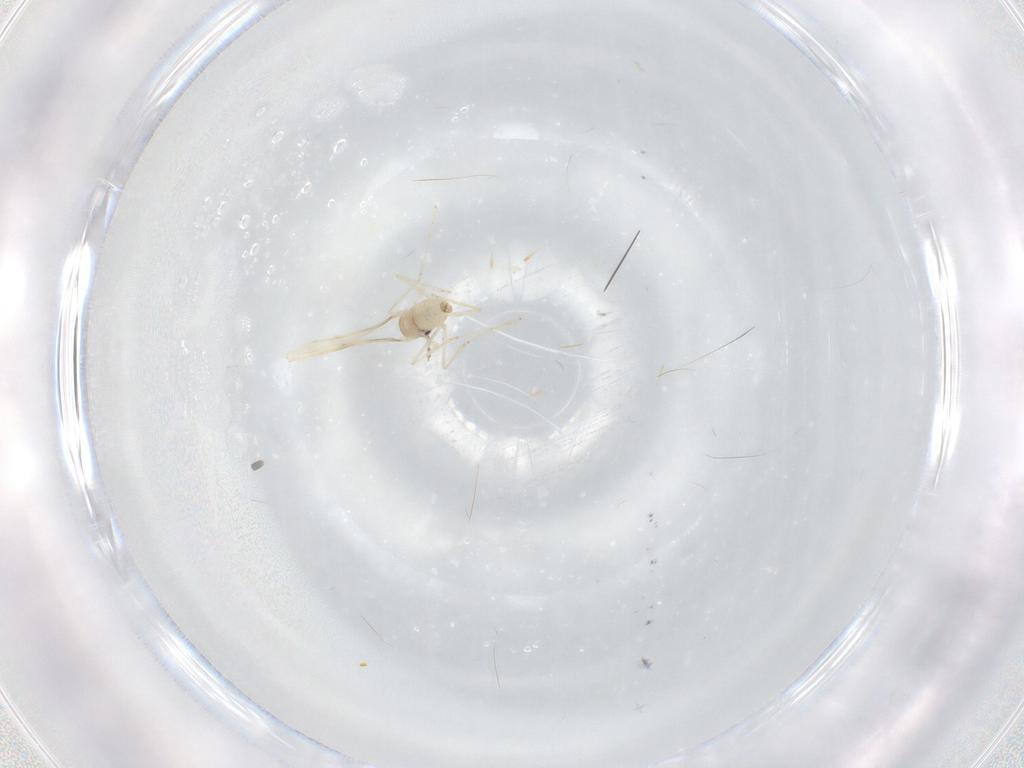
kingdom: Animalia
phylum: Arthropoda
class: Insecta
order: Diptera
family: Cecidomyiidae
